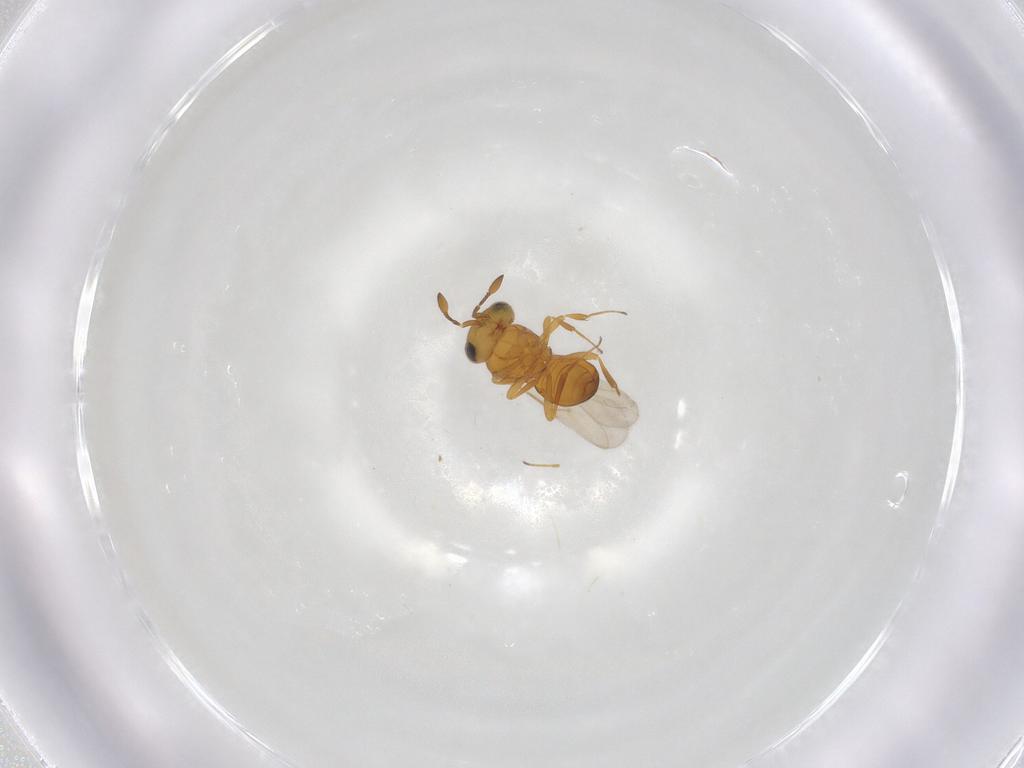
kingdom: Animalia
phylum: Arthropoda
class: Insecta
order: Hymenoptera
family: Scelionidae
